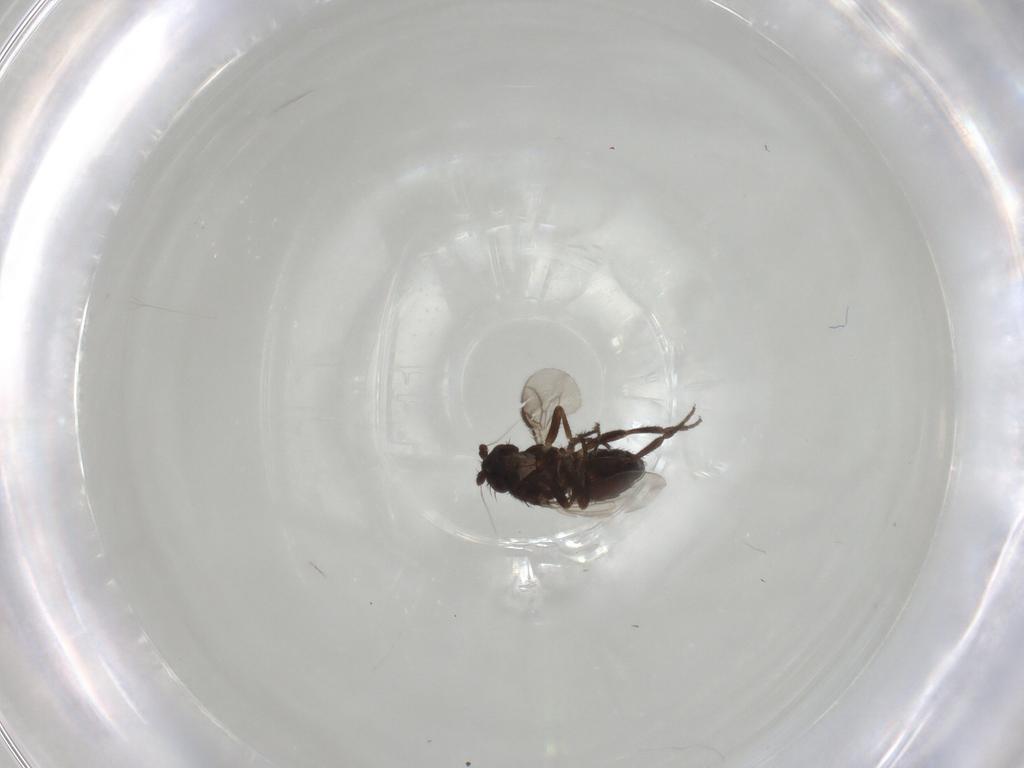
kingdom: Animalia
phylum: Arthropoda
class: Insecta
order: Diptera
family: Sphaeroceridae
